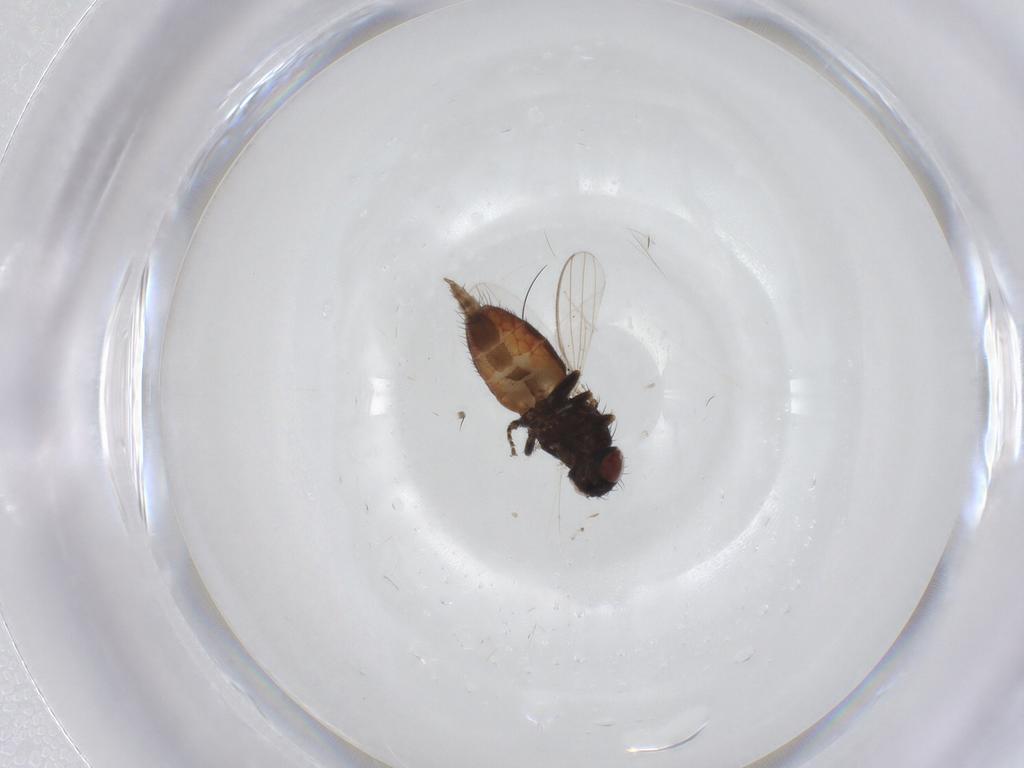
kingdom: Animalia
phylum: Arthropoda
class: Insecta
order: Diptera
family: Milichiidae
